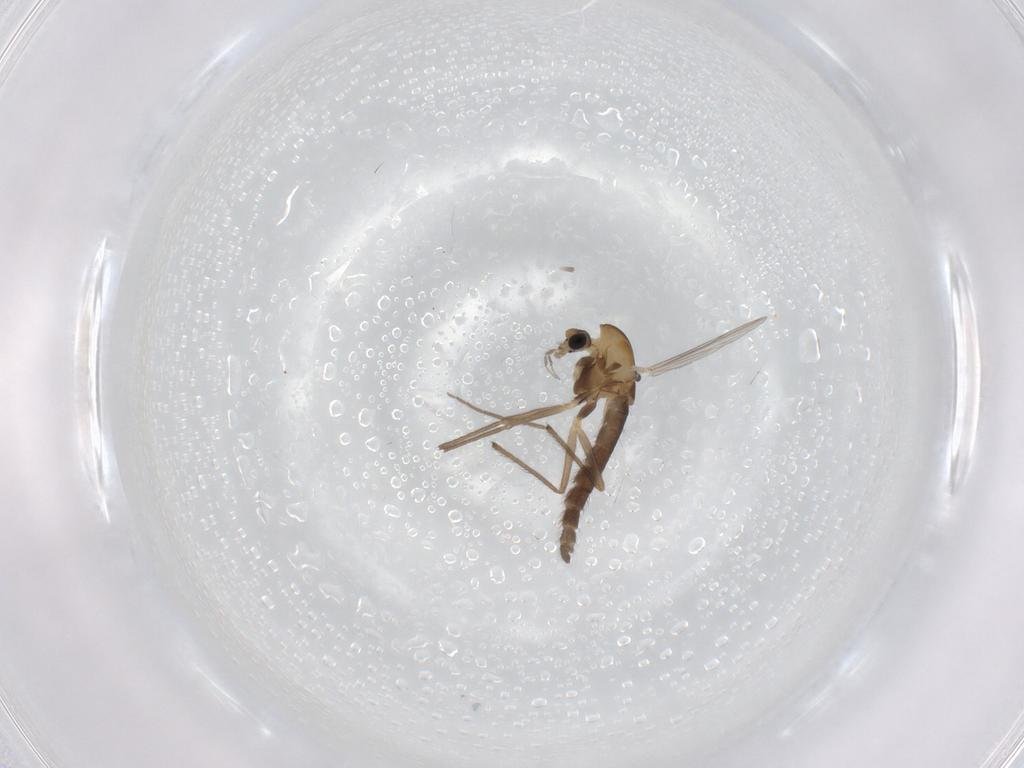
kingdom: Animalia
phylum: Arthropoda
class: Insecta
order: Diptera
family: Chironomidae
